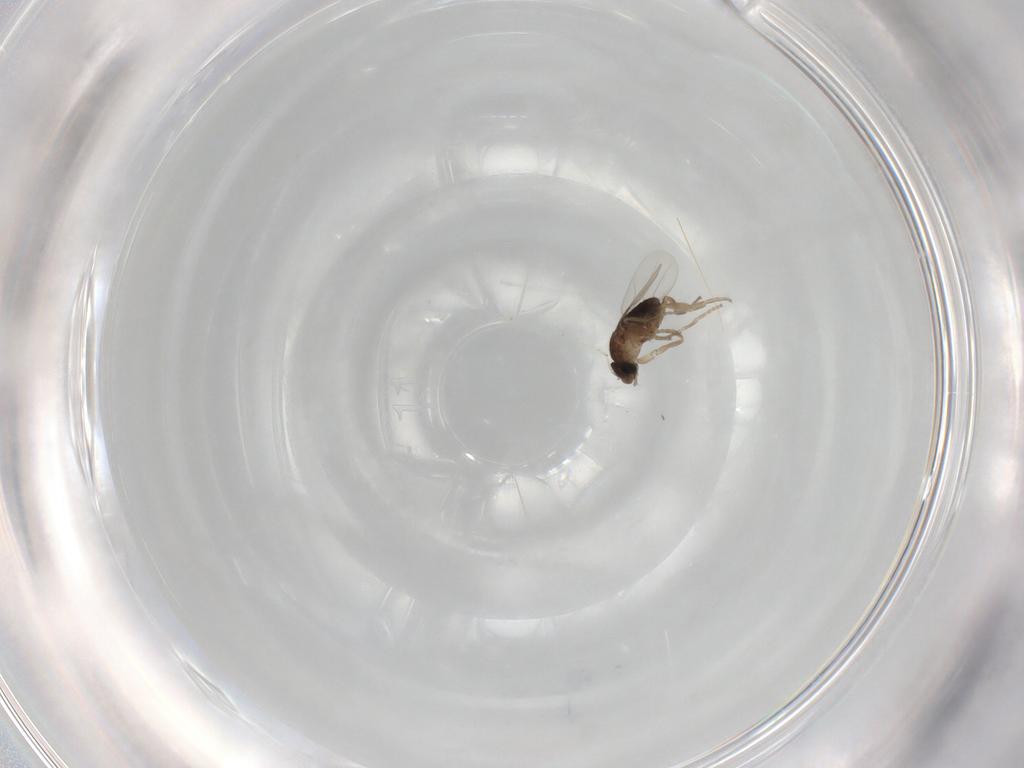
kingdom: Animalia
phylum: Arthropoda
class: Insecta
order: Diptera
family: Phoridae
